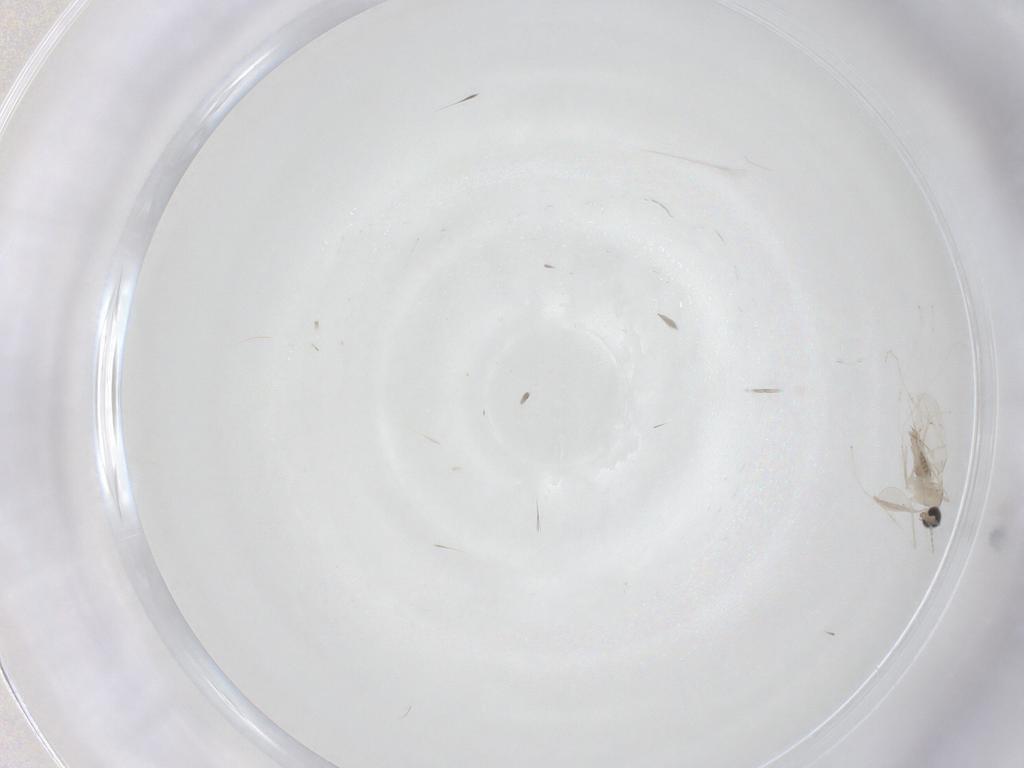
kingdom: Animalia
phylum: Arthropoda
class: Insecta
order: Diptera
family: Cecidomyiidae
